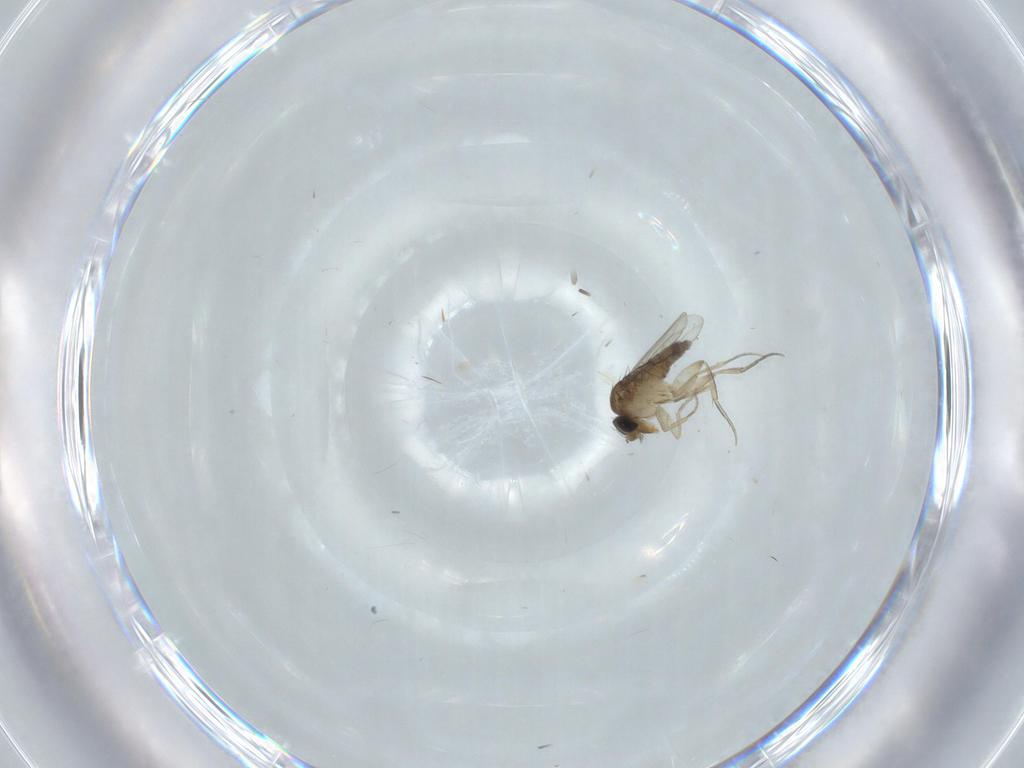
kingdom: Animalia
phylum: Arthropoda
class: Insecta
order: Diptera
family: Phoridae
